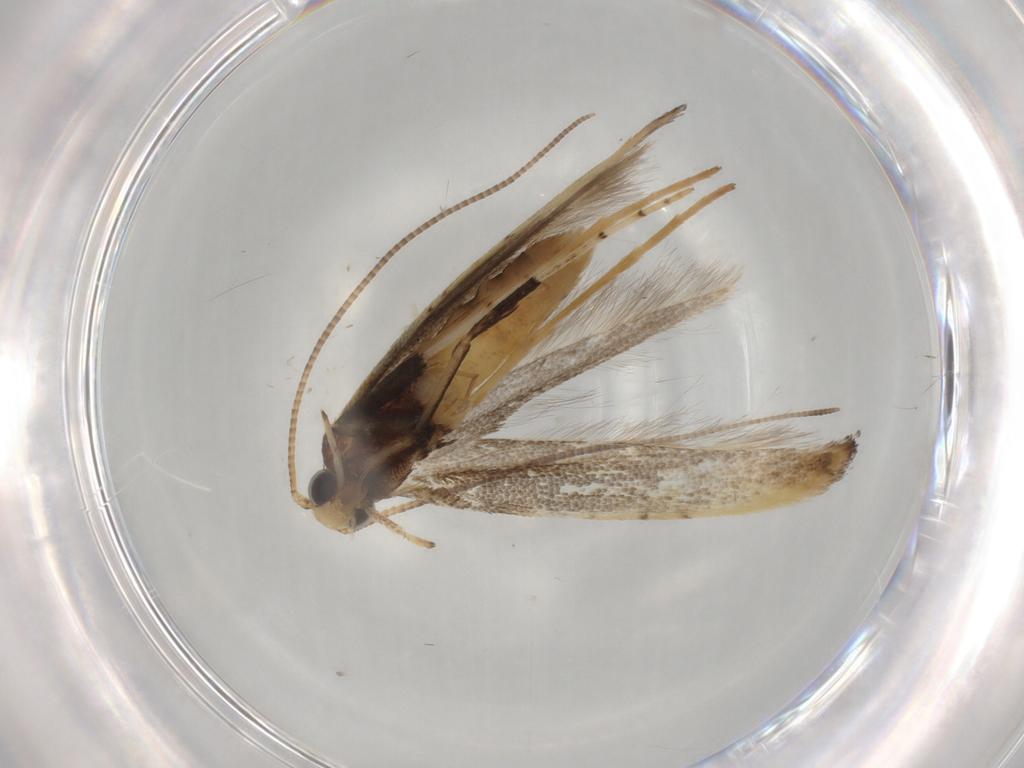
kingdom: Animalia
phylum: Arthropoda
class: Insecta
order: Lepidoptera
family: Gracillariidae
